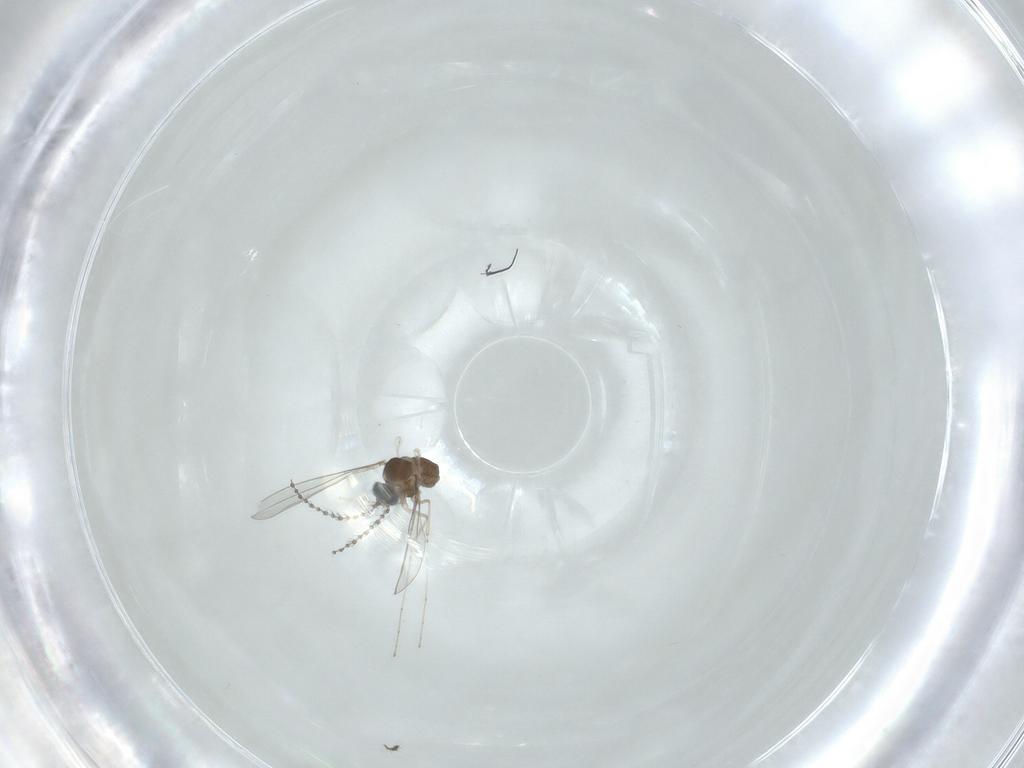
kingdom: Animalia
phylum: Arthropoda
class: Insecta
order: Diptera
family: Cecidomyiidae
